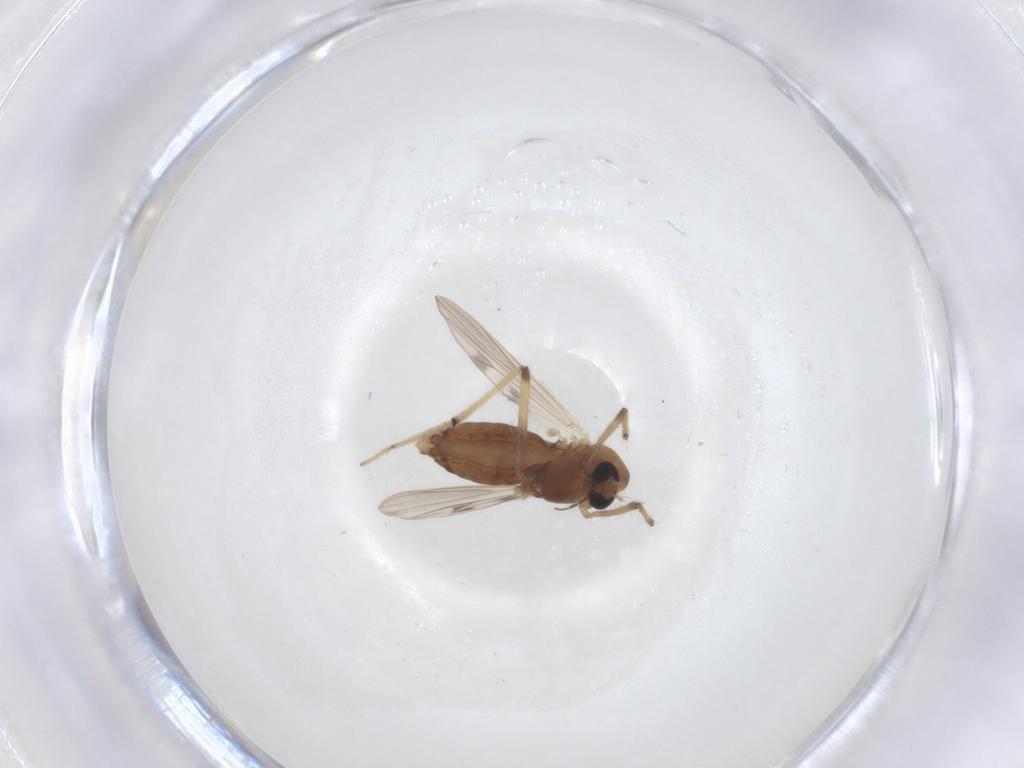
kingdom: Animalia
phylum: Arthropoda
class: Insecta
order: Diptera
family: Chironomidae
